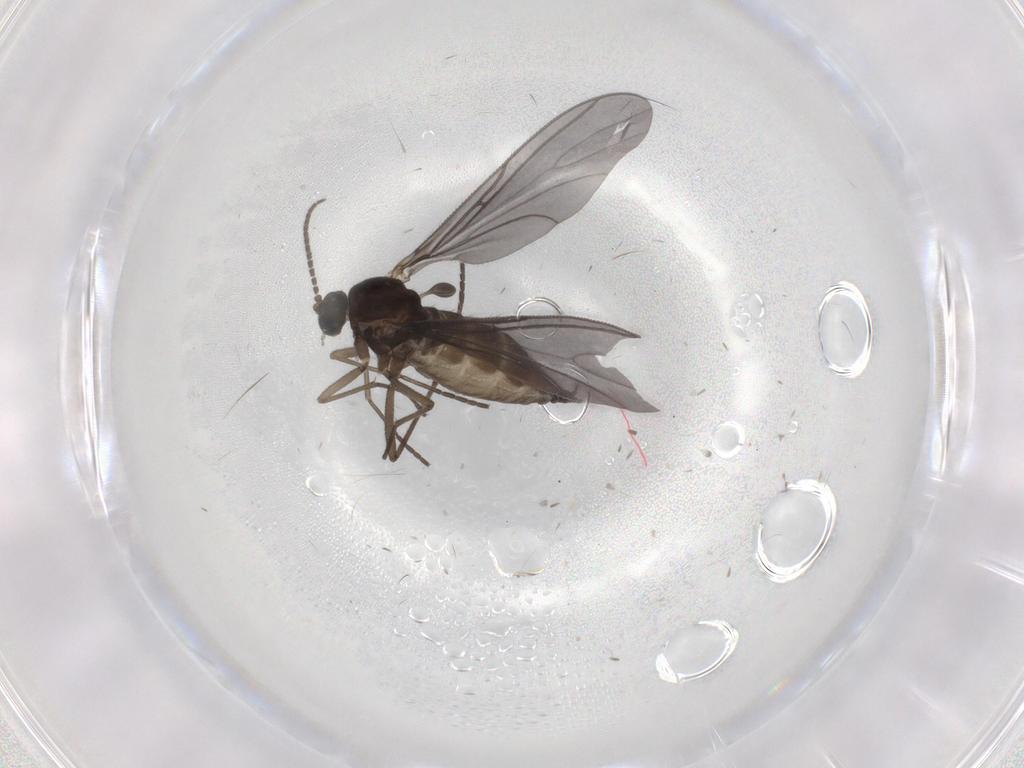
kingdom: Animalia
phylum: Arthropoda
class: Insecta
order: Diptera
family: Sciaridae
